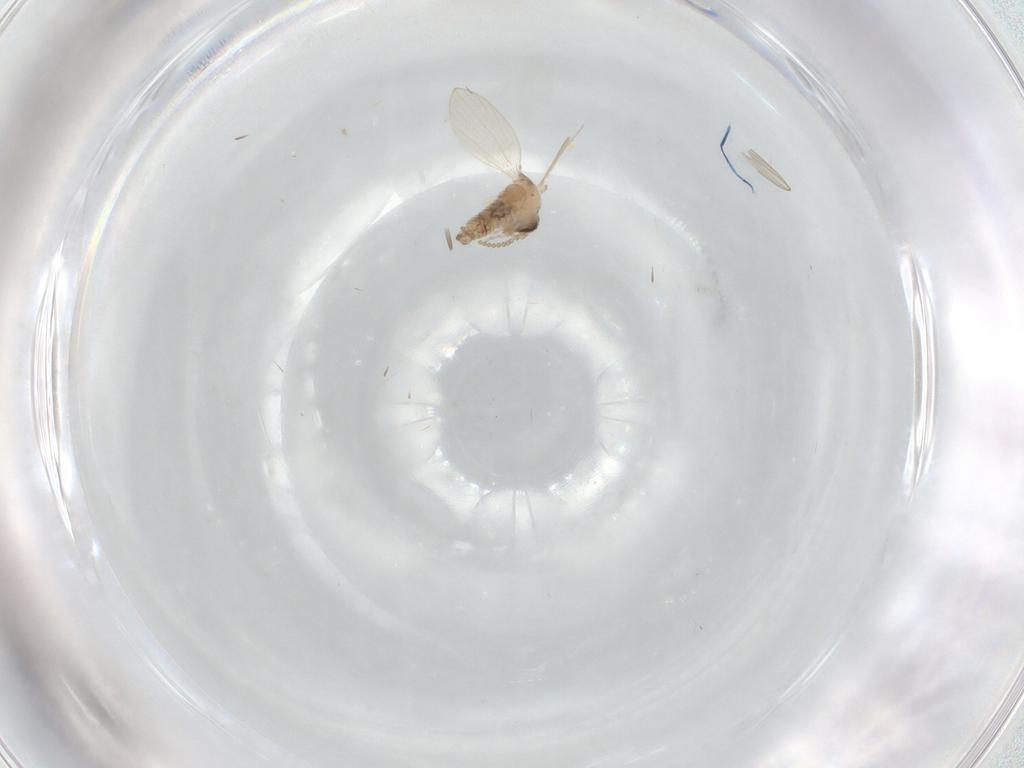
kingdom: Animalia
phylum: Arthropoda
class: Insecta
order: Diptera
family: Psychodidae
